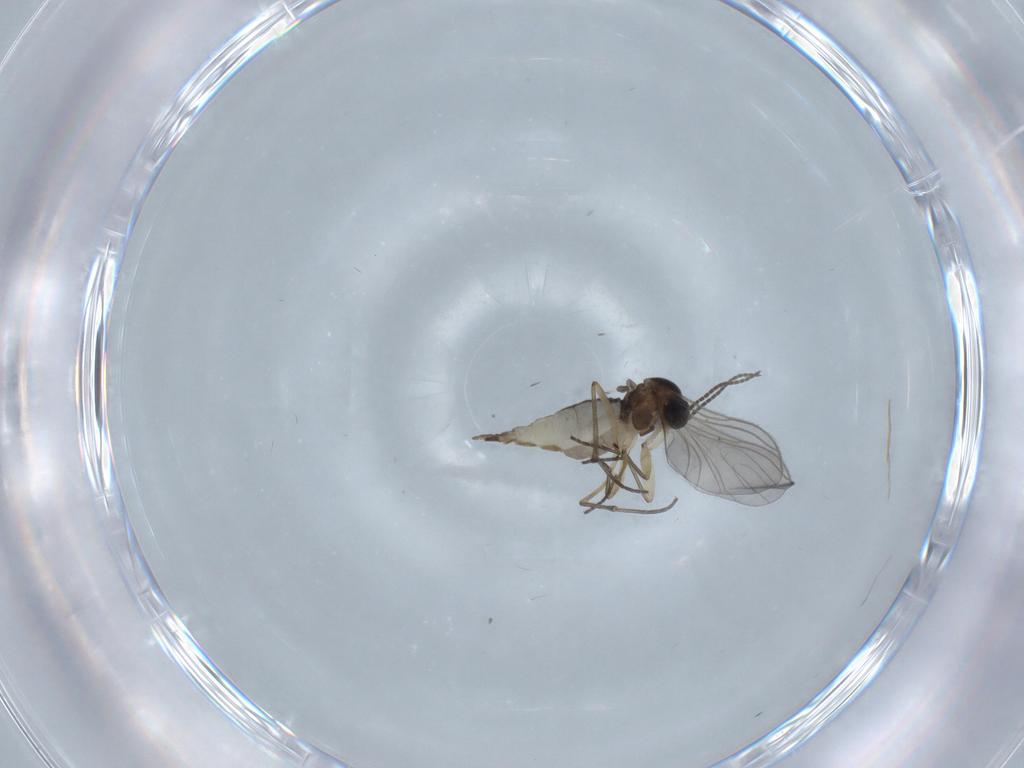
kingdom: Animalia
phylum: Arthropoda
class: Insecta
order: Diptera
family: Sciaridae
